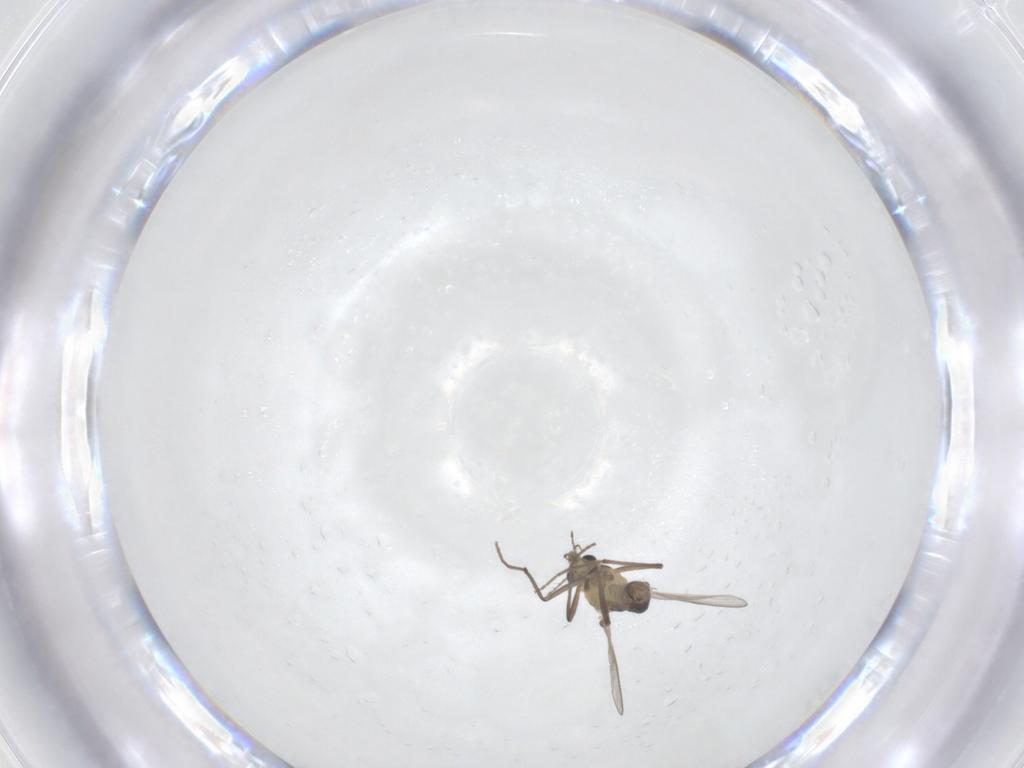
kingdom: Animalia
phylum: Arthropoda
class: Insecta
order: Diptera
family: Chironomidae
